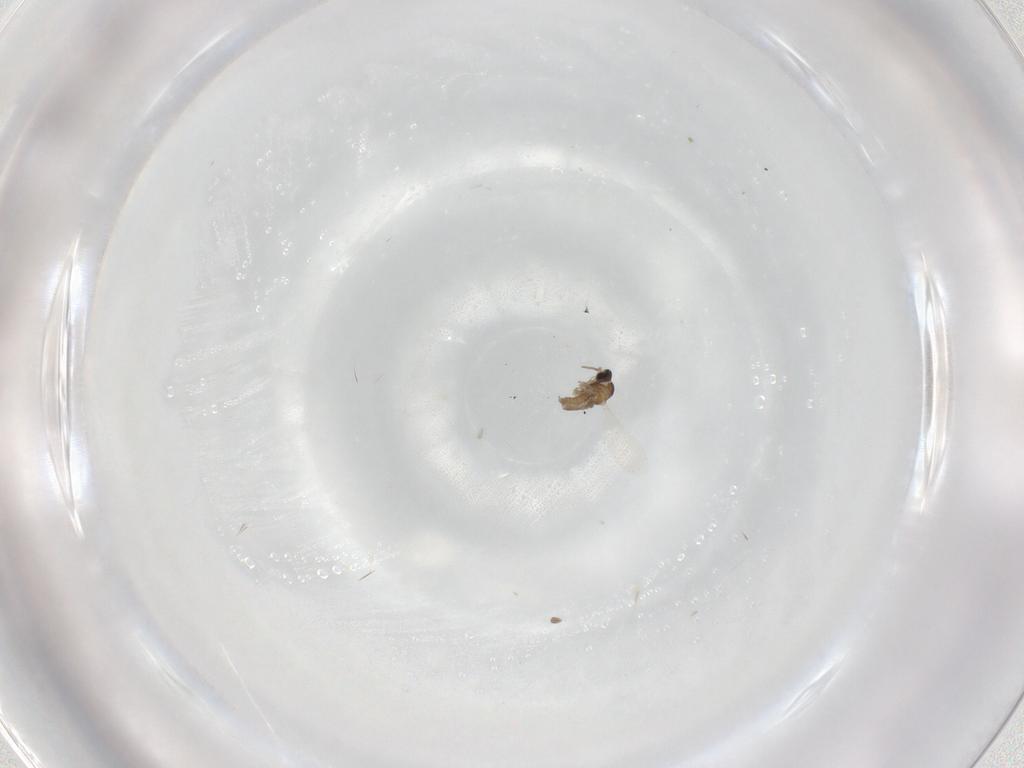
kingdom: Animalia
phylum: Arthropoda
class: Insecta
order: Diptera
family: Cecidomyiidae
